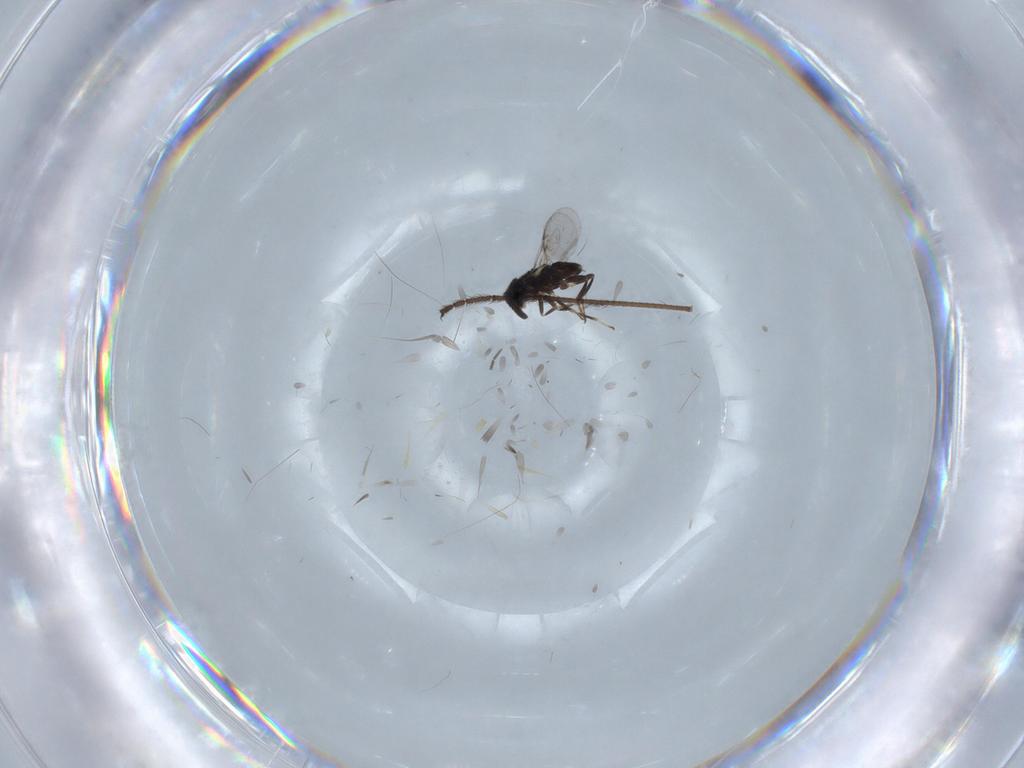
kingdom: Animalia
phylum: Arthropoda
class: Insecta
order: Hymenoptera
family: Encyrtidae
